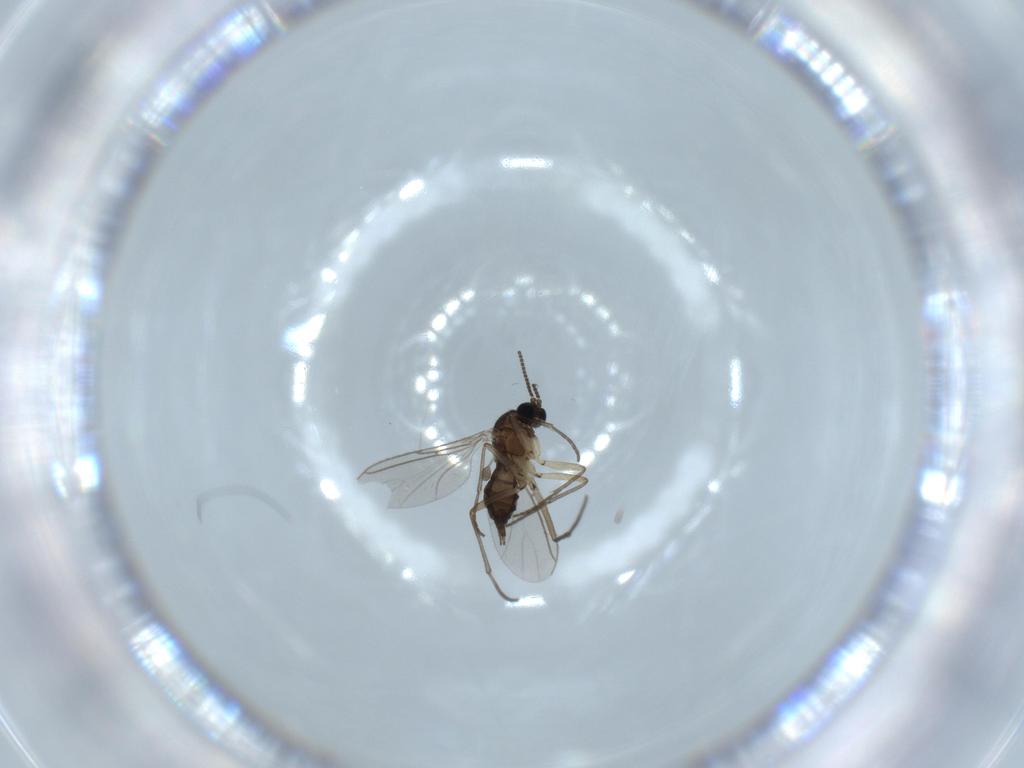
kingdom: Animalia
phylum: Arthropoda
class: Insecta
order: Diptera
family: Sciaridae
